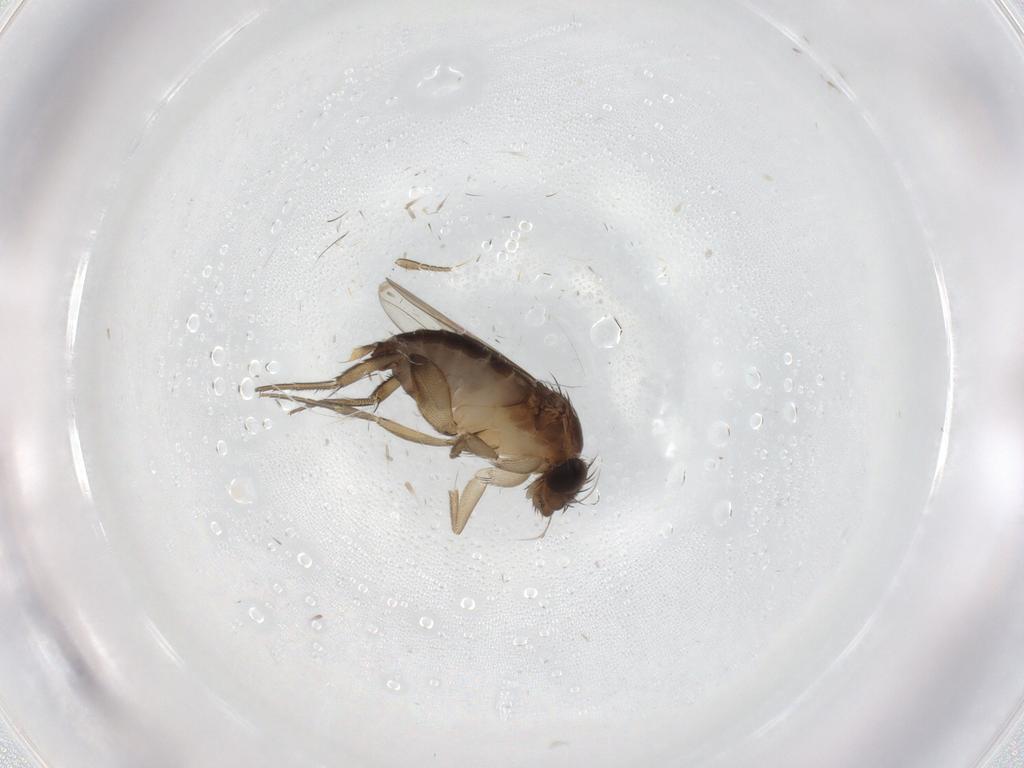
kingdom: Animalia
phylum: Arthropoda
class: Insecta
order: Diptera
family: Phoridae
